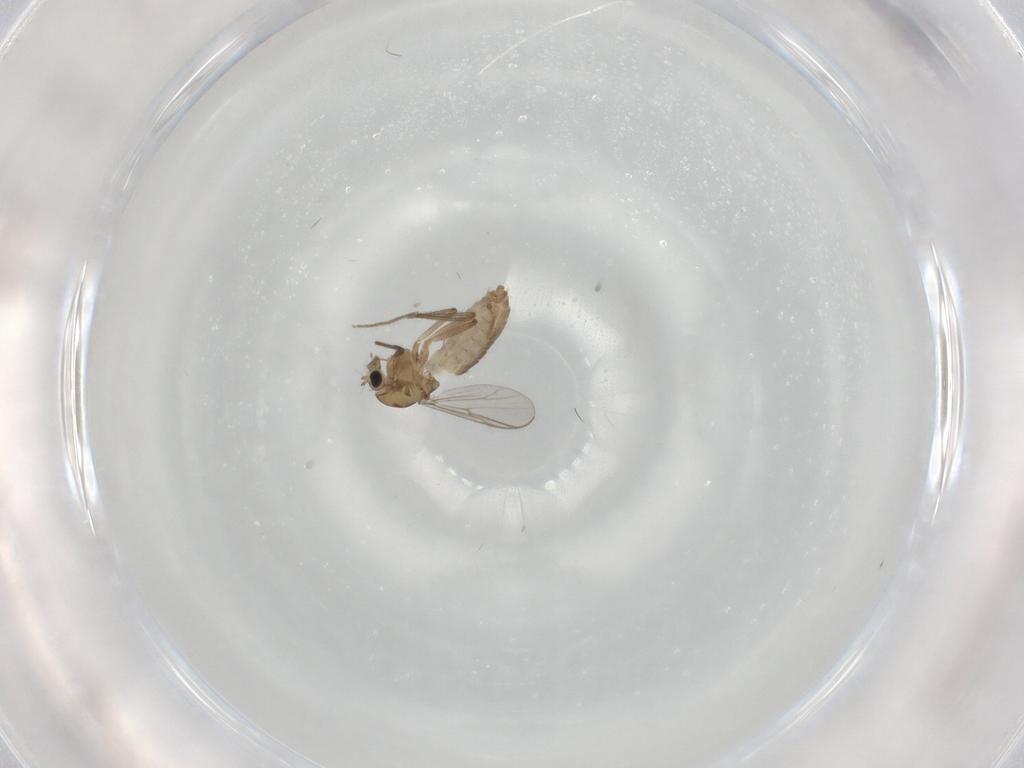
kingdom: Animalia
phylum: Arthropoda
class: Insecta
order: Diptera
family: Chironomidae
